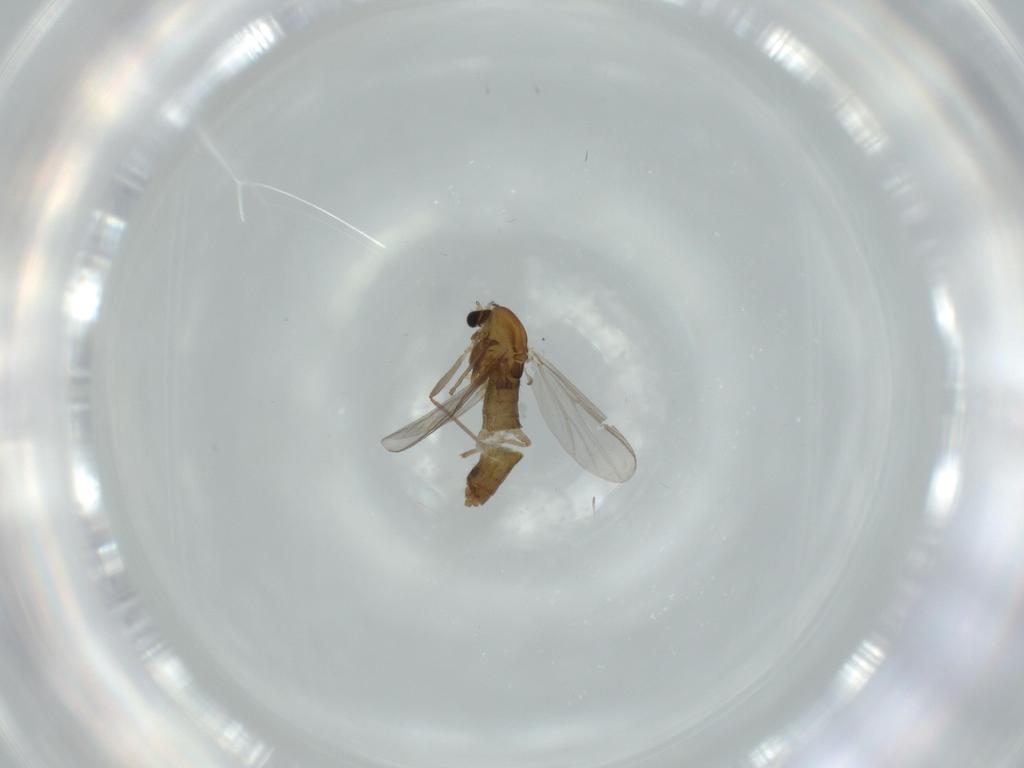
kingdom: Animalia
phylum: Arthropoda
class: Insecta
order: Diptera
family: Chironomidae
